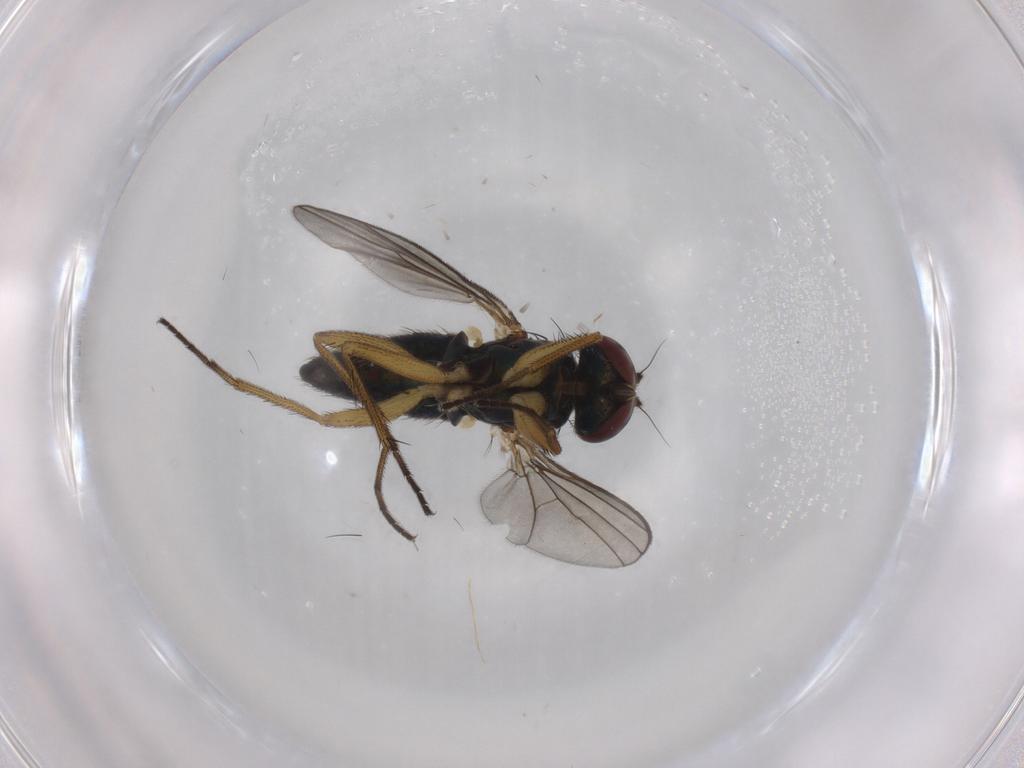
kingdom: Animalia
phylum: Arthropoda
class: Insecta
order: Diptera
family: Dolichopodidae
